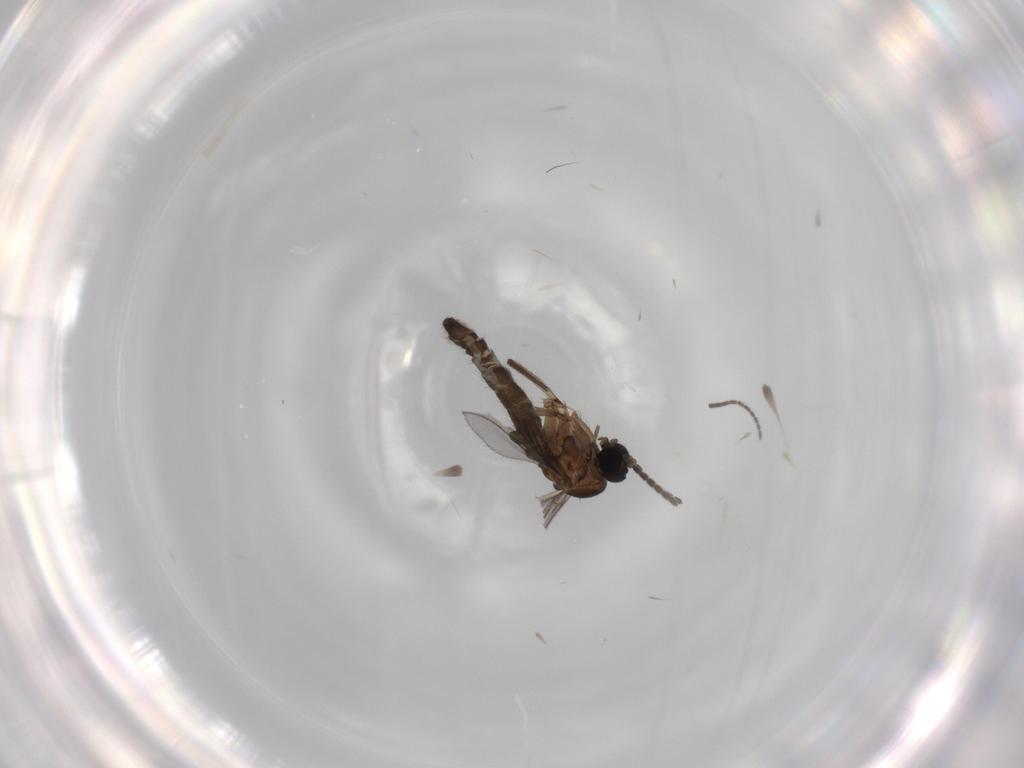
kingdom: Animalia
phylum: Arthropoda
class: Insecta
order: Diptera
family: Sciaridae
